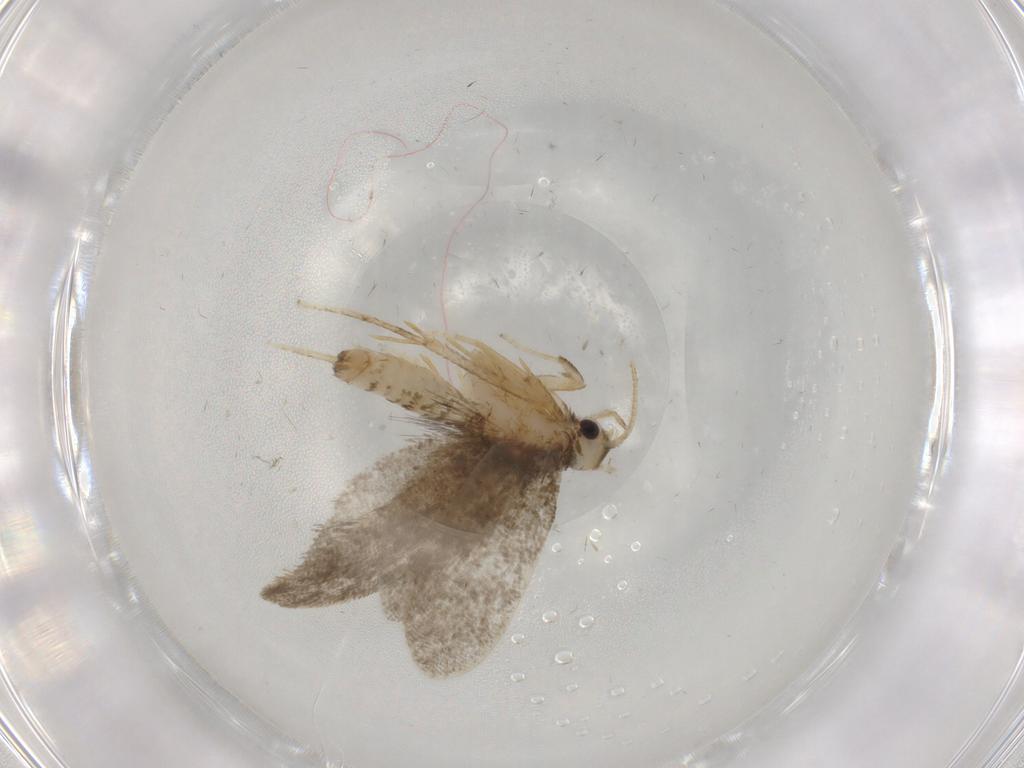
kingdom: Animalia
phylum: Arthropoda
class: Insecta
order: Lepidoptera
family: Psychidae
